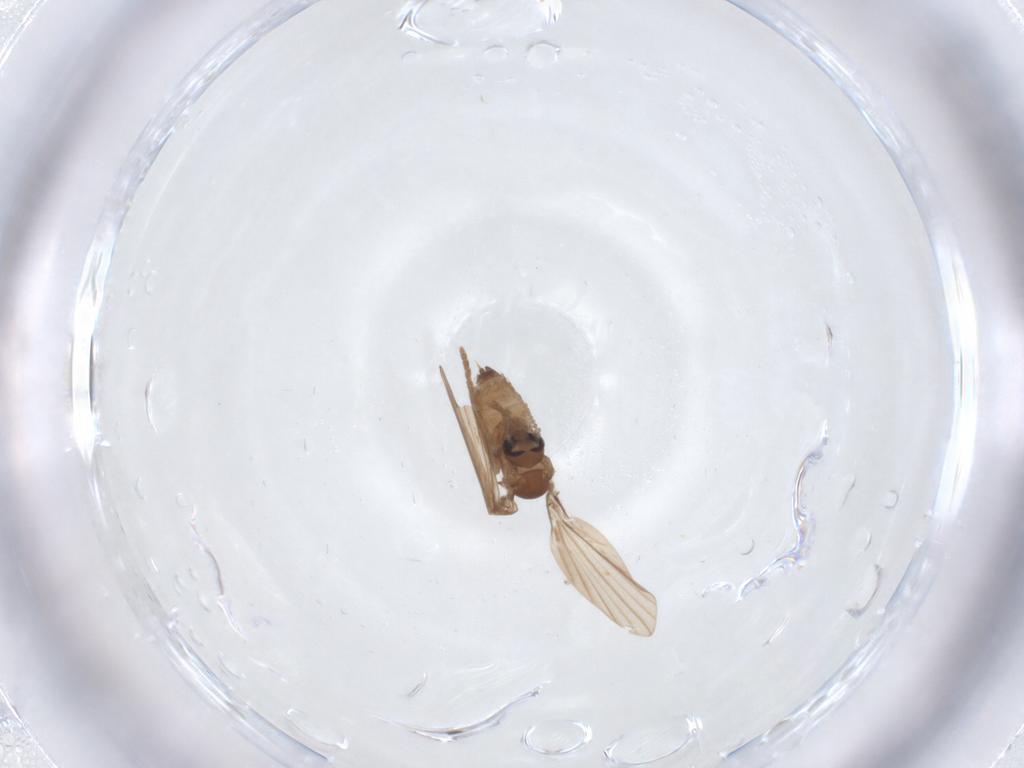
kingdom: Animalia
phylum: Arthropoda
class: Insecta
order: Diptera
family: Psychodidae
